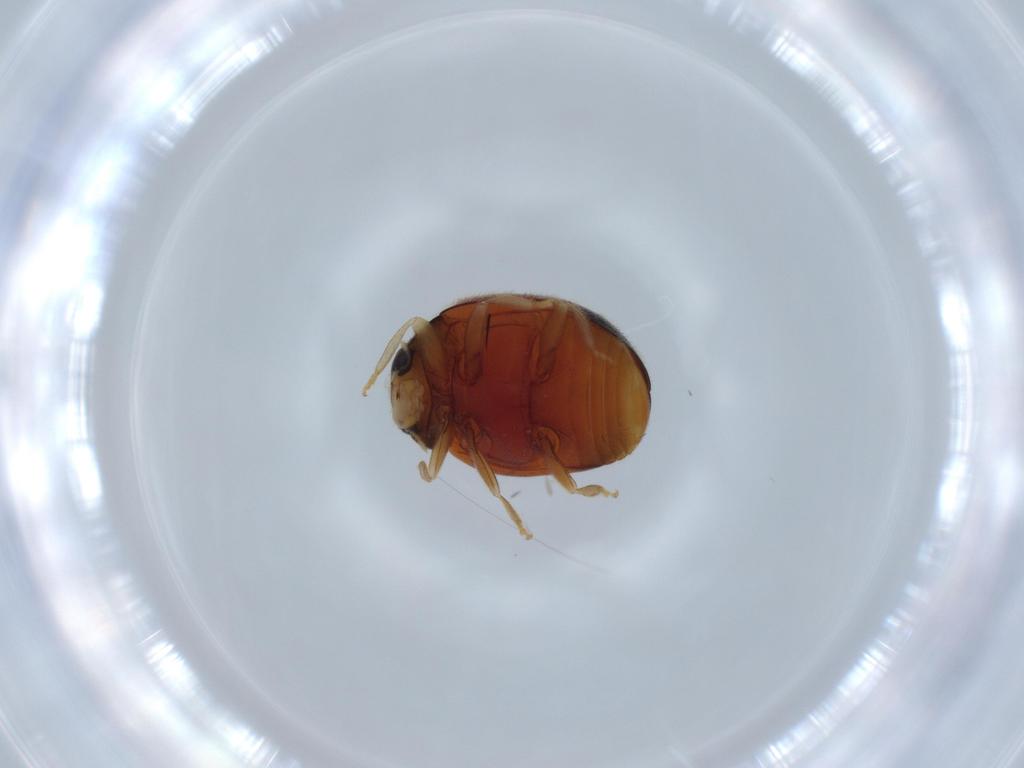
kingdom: Animalia
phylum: Arthropoda
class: Insecta
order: Coleoptera
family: Coccinellidae
